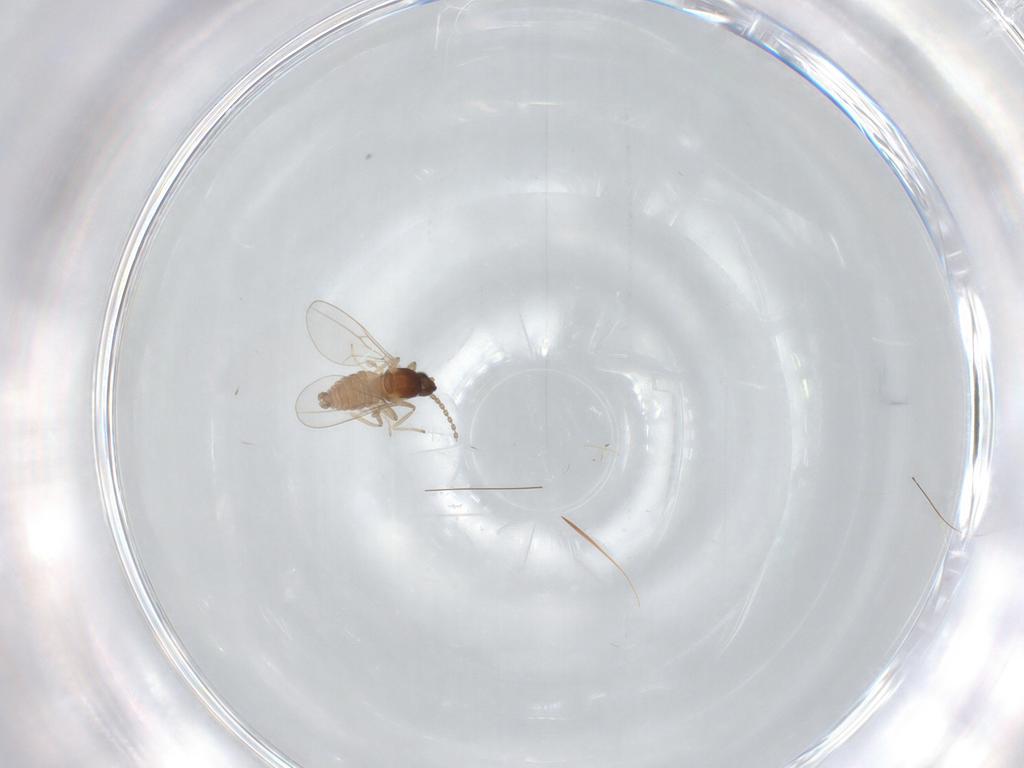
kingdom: Animalia
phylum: Arthropoda
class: Insecta
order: Diptera
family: Cecidomyiidae
